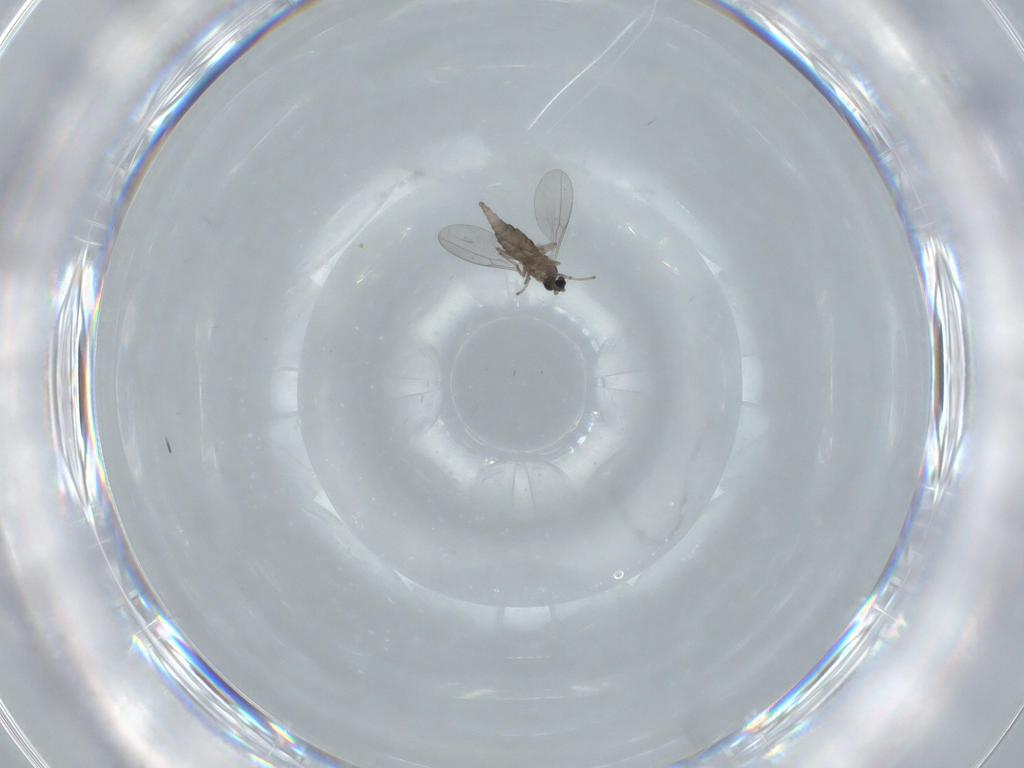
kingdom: Animalia
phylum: Arthropoda
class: Insecta
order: Diptera
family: Cecidomyiidae
